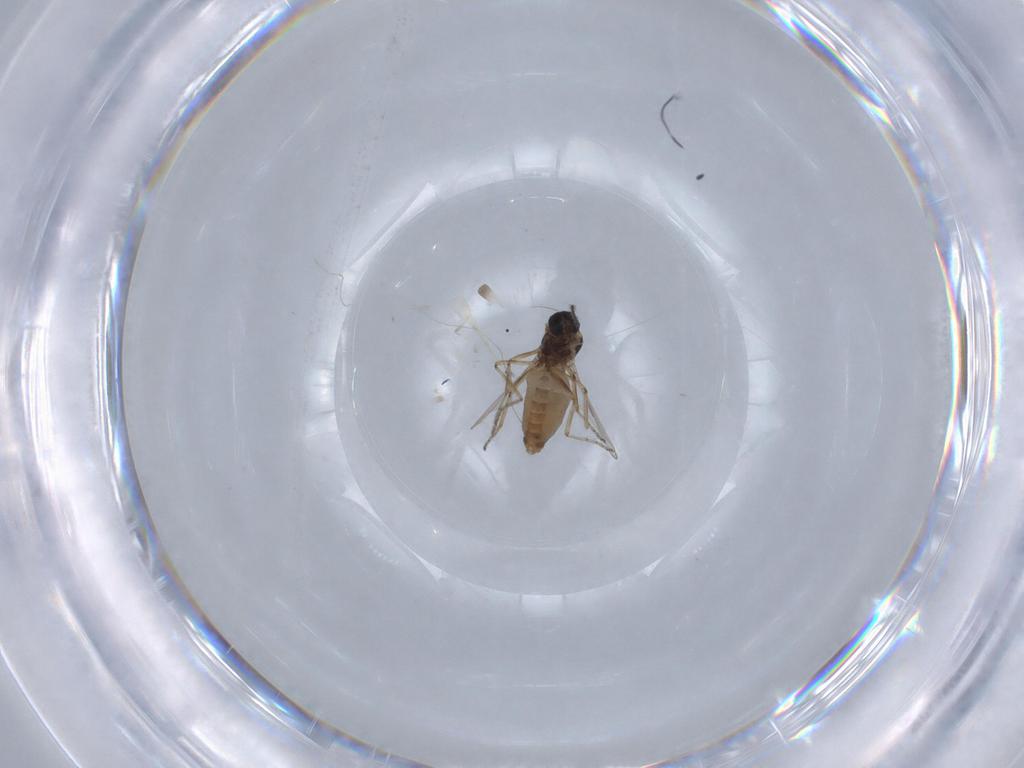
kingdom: Animalia
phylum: Arthropoda
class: Insecta
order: Diptera
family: Ceratopogonidae
